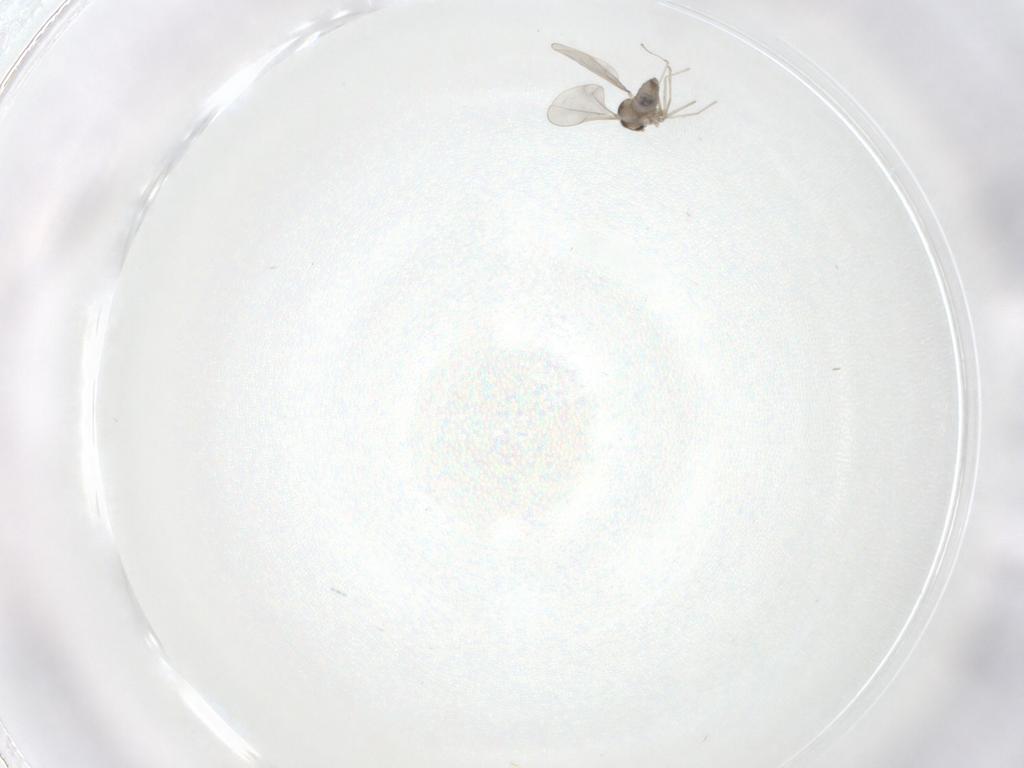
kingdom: Animalia
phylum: Arthropoda
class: Insecta
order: Diptera
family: Cecidomyiidae
